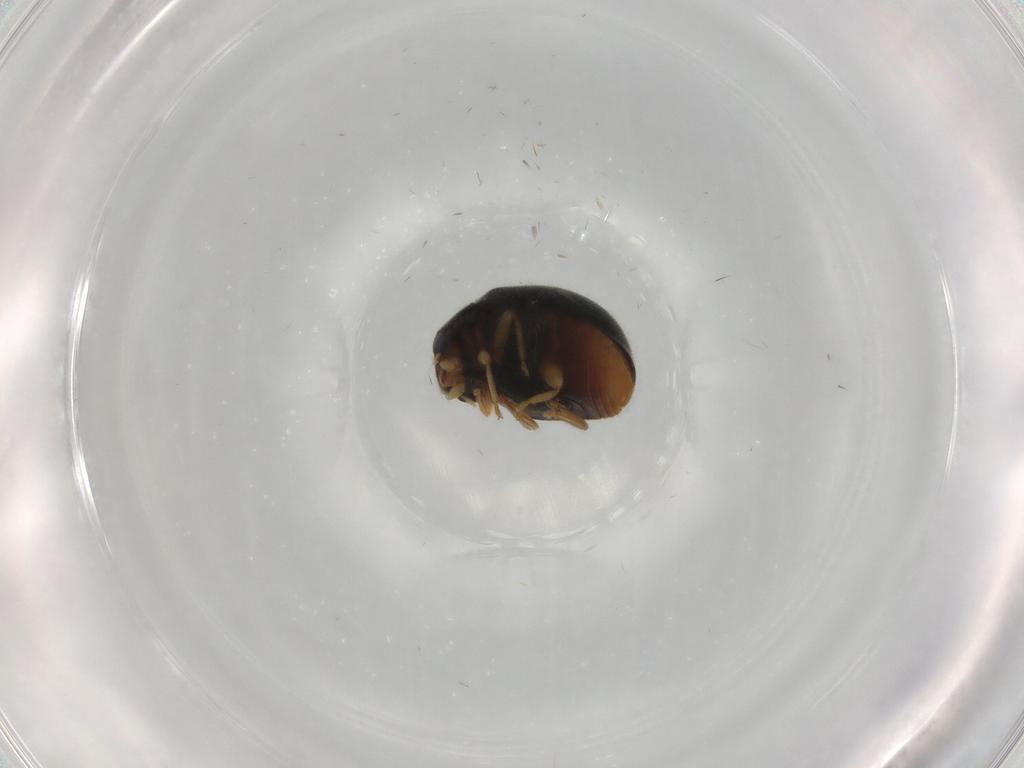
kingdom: Animalia
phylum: Arthropoda
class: Insecta
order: Coleoptera
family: Coccinellidae
